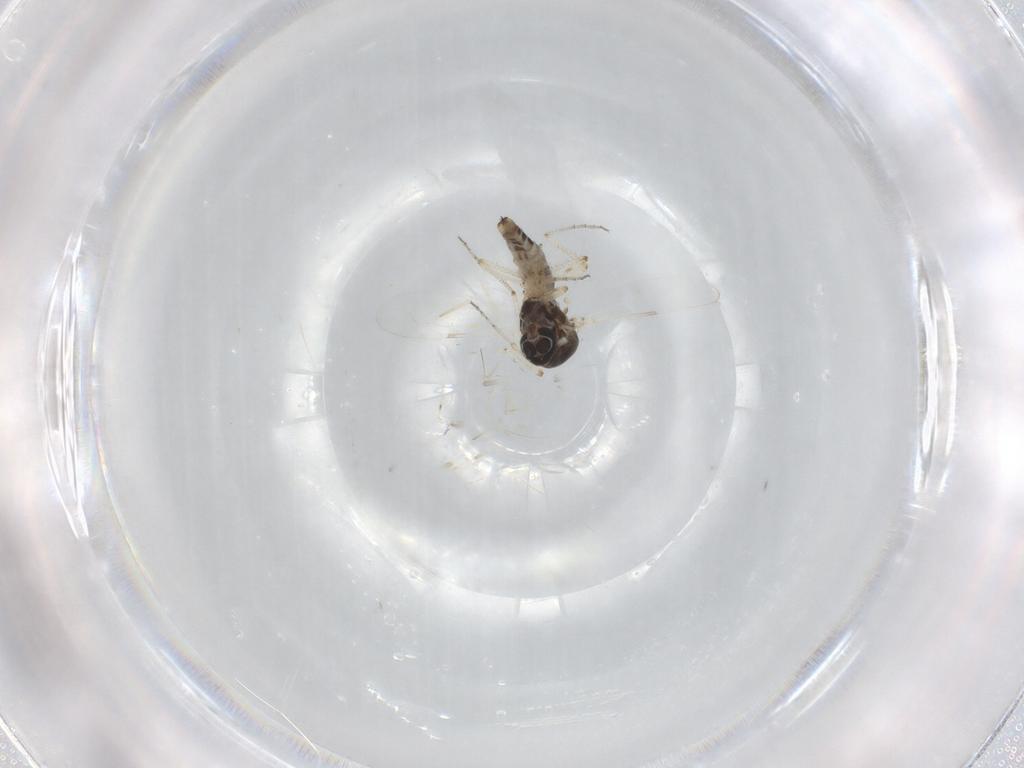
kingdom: Animalia
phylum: Arthropoda
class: Insecta
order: Diptera
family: Ceratopogonidae
